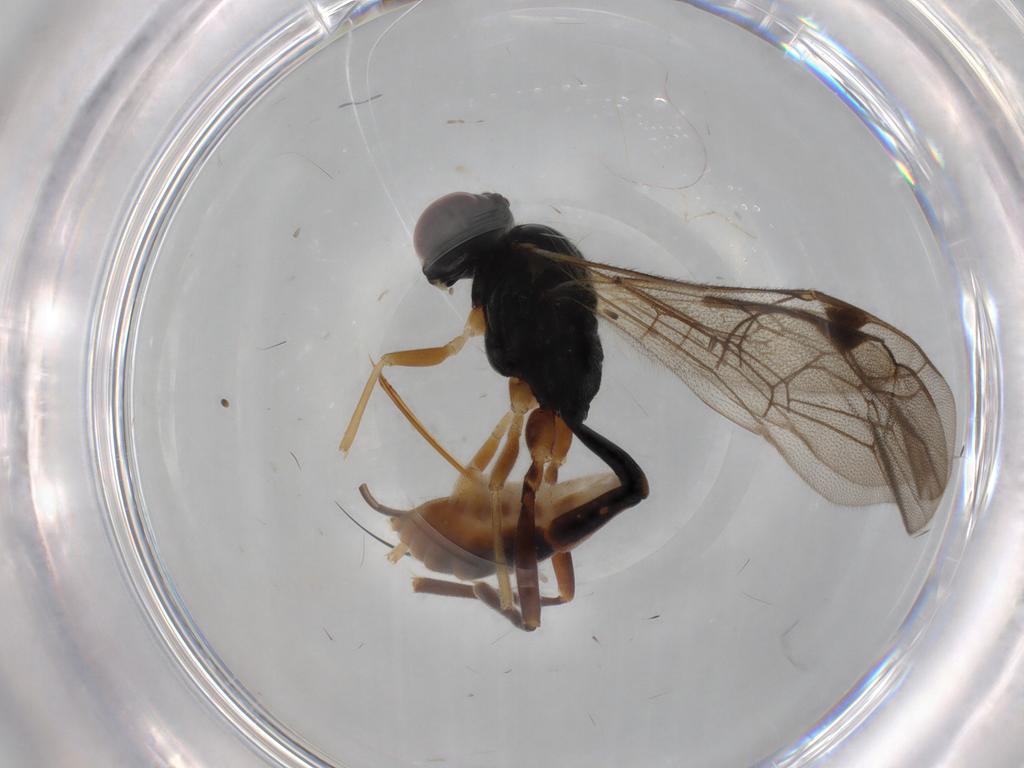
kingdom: Animalia
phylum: Arthropoda
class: Insecta
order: Hymenoptera
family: Ichneumonidae
